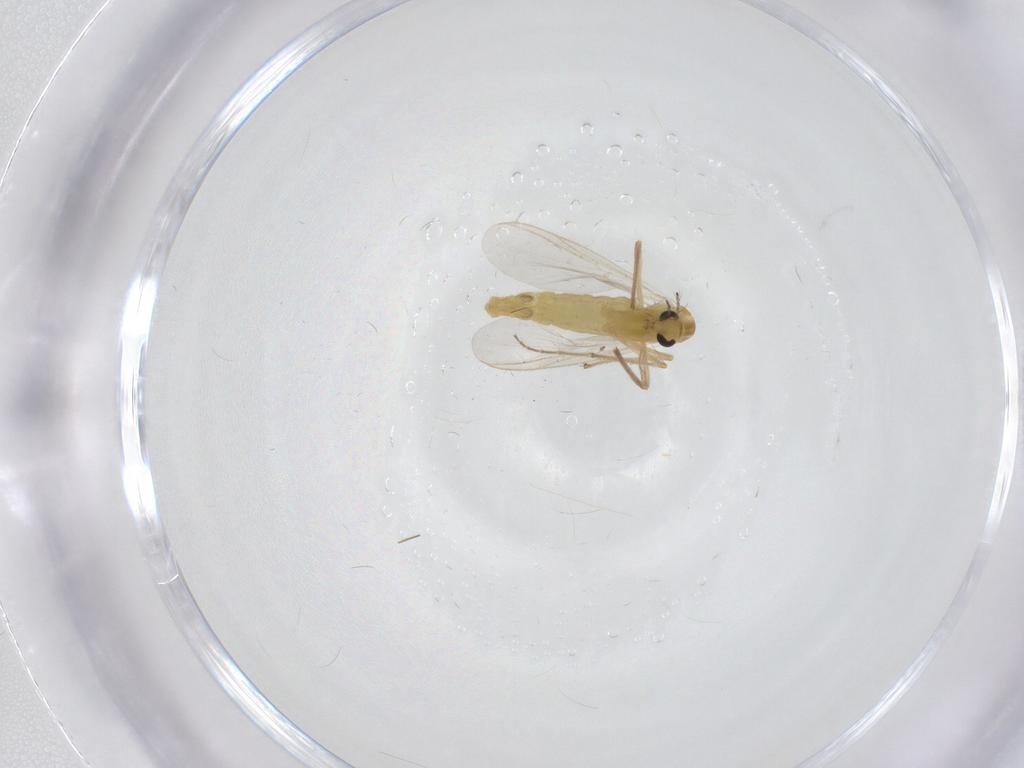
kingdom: Animalia
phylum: Arthropoda
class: Insecta
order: Diptera
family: Chironomidae
